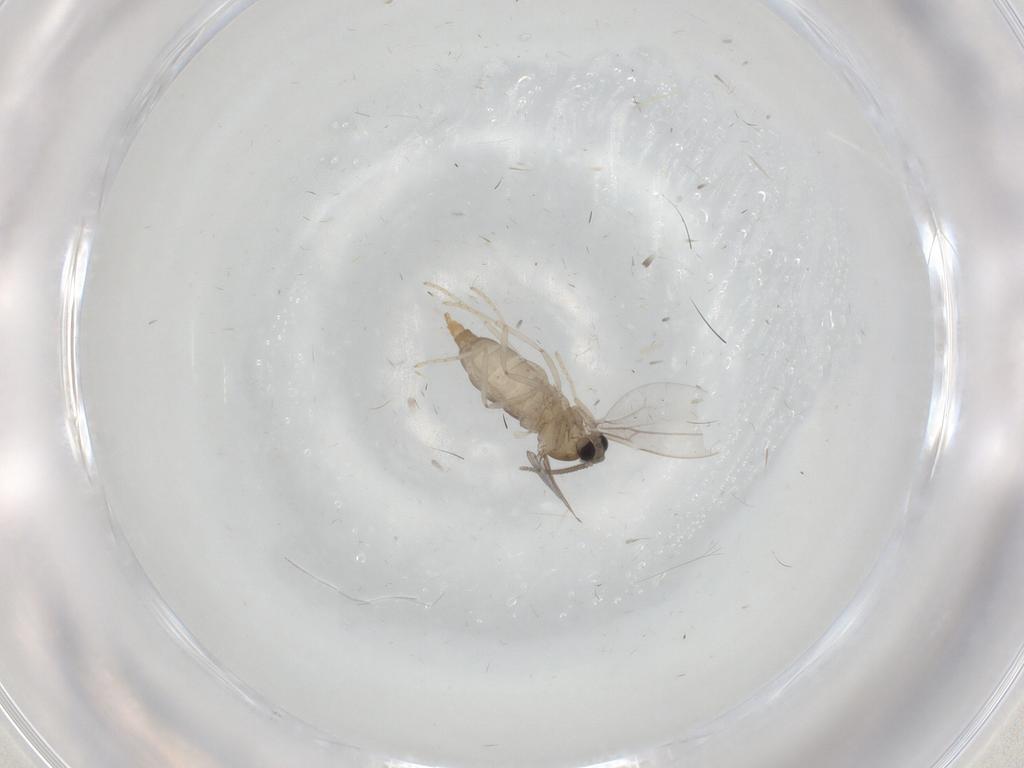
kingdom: Animalia
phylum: Arthropoda
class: Insecta
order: Diptera
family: Cecidomyiidae
